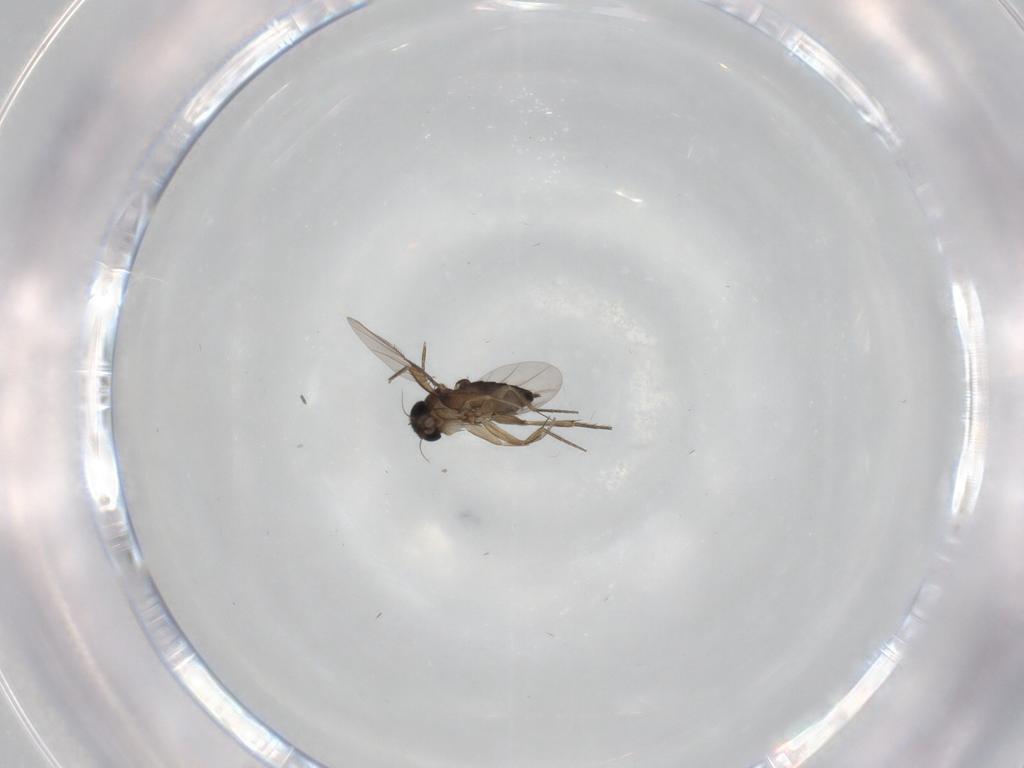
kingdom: Animalia
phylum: Arthropoda
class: Insecta
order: Diptera
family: Phoridae
